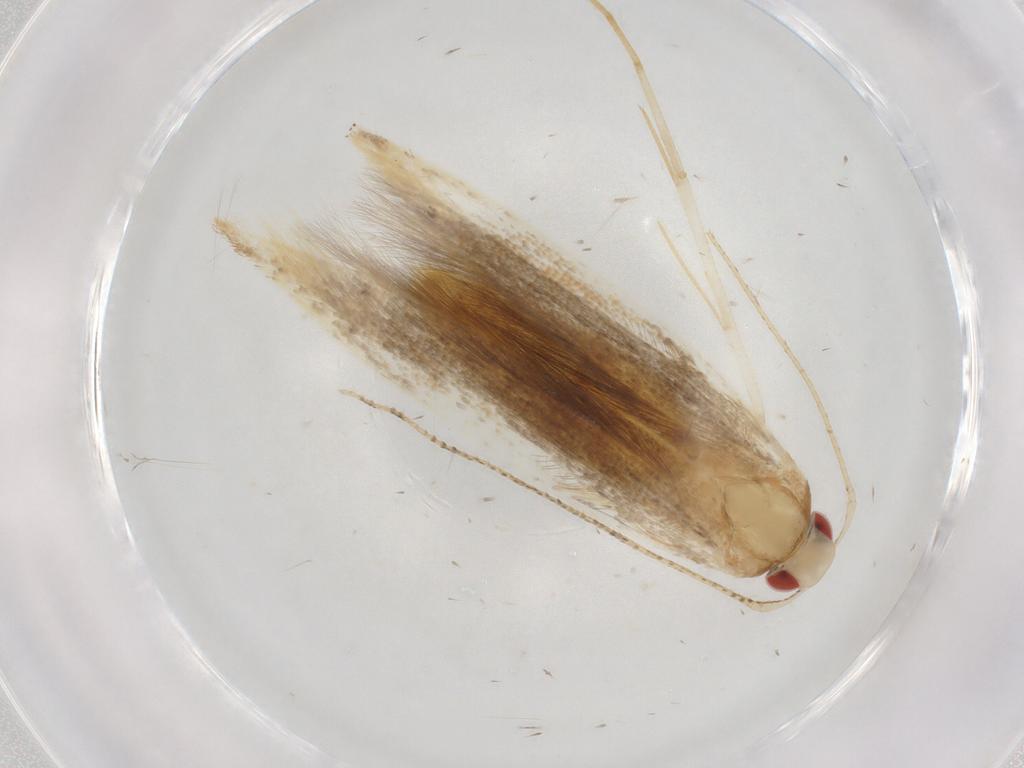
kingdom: Animalia
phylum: Arthropoda
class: Insecta
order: Lepidoptera
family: Cosmopterigidae
